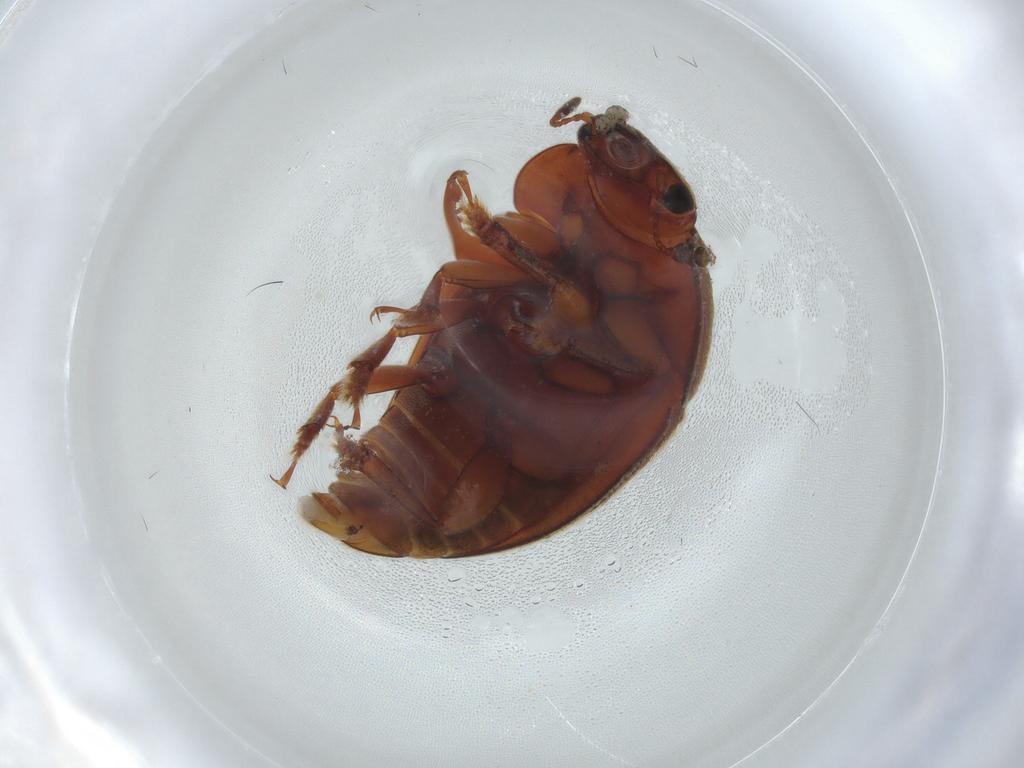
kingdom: Animalia
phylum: Arthropoda
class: Insecta
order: Coleoptera
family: Nitidulidae
